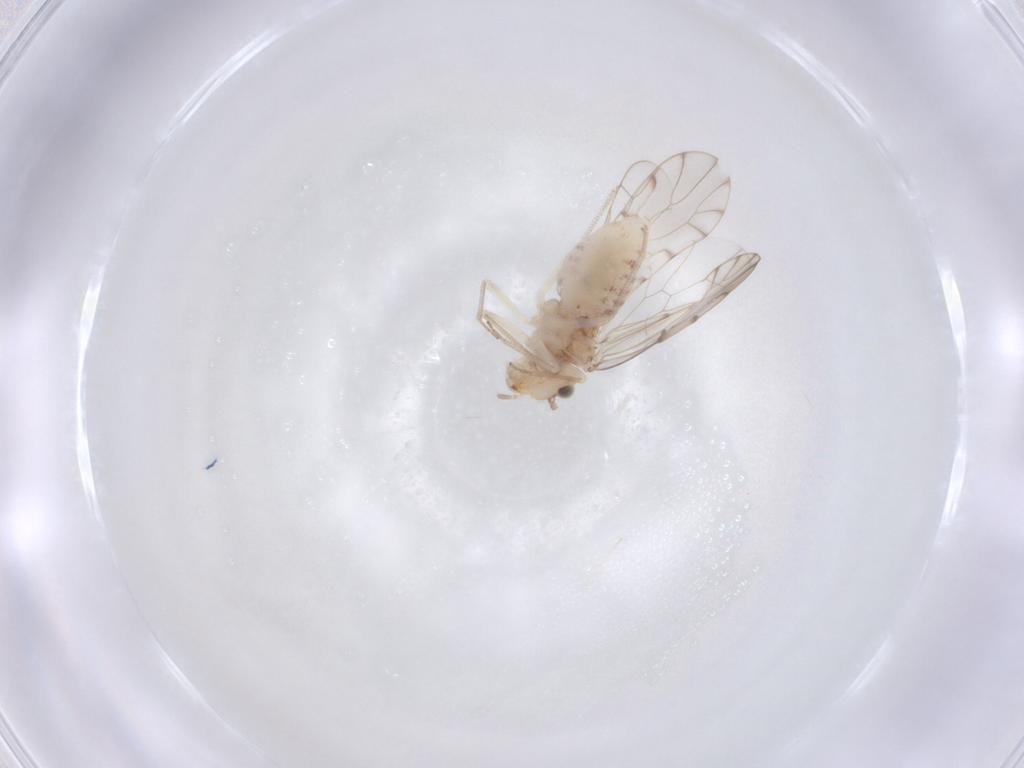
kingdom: Animalia
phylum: Arthropoda
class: Insecta
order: Psocodea
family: Ectopsocidae
